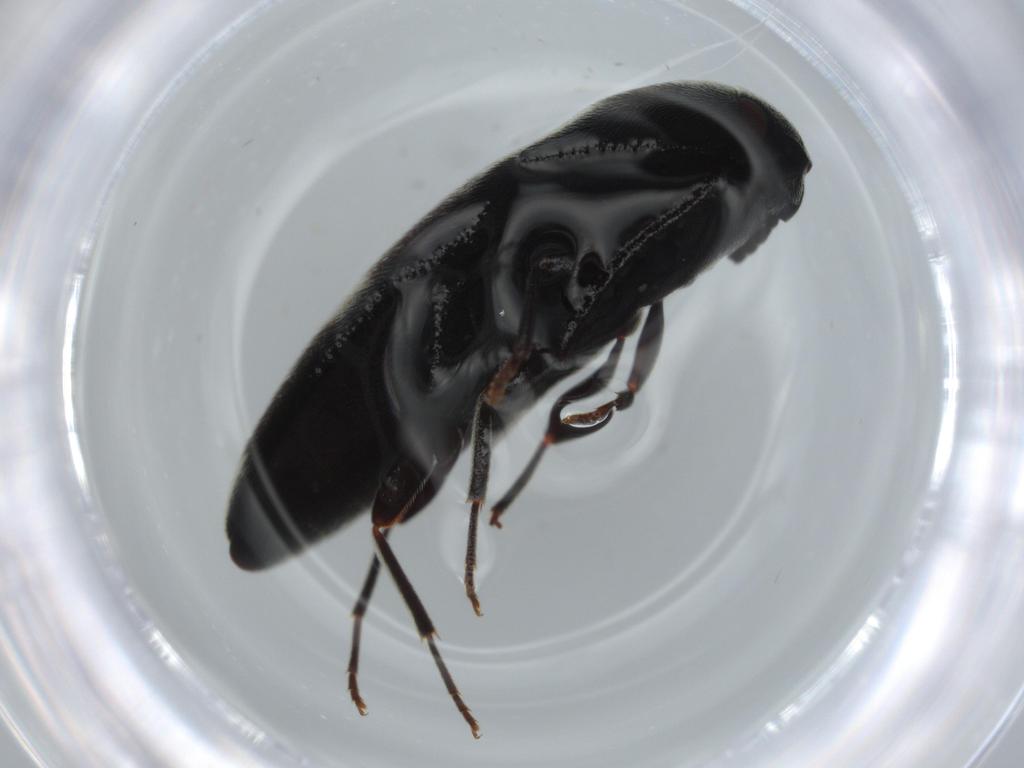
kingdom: Animalia
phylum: Arthropoda
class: Insecta
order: Coleoptera
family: Eucnemidae
